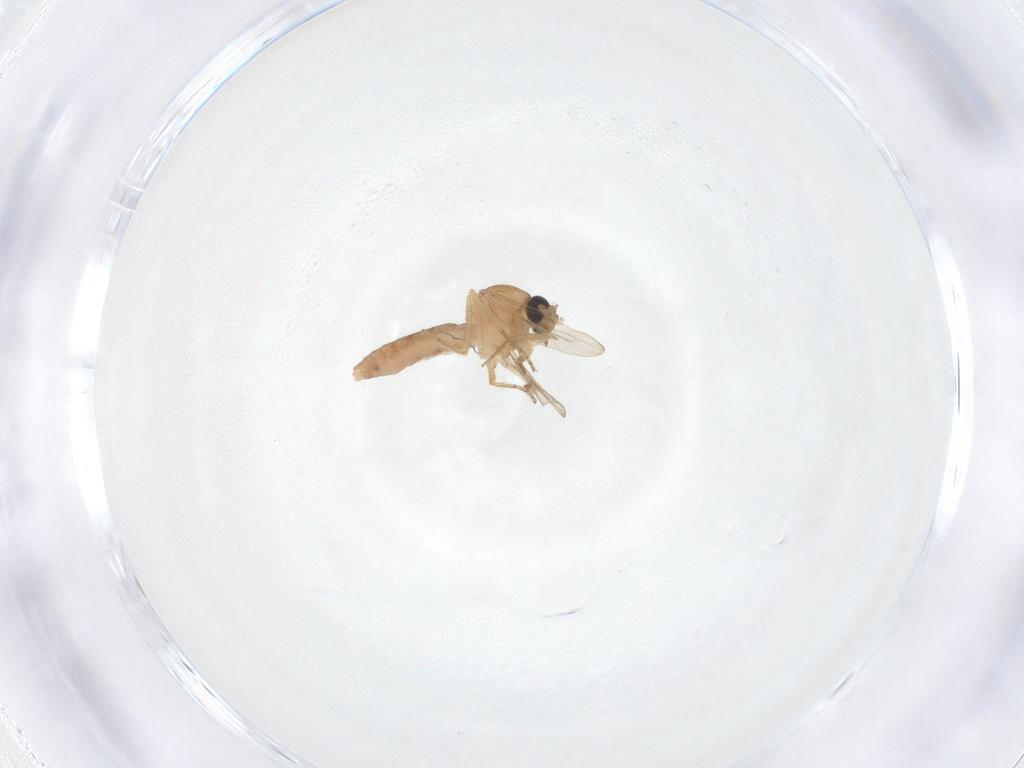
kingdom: Animalia
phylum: Arthropoda
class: Insecta
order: Diptera
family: Ceratopogonidae
